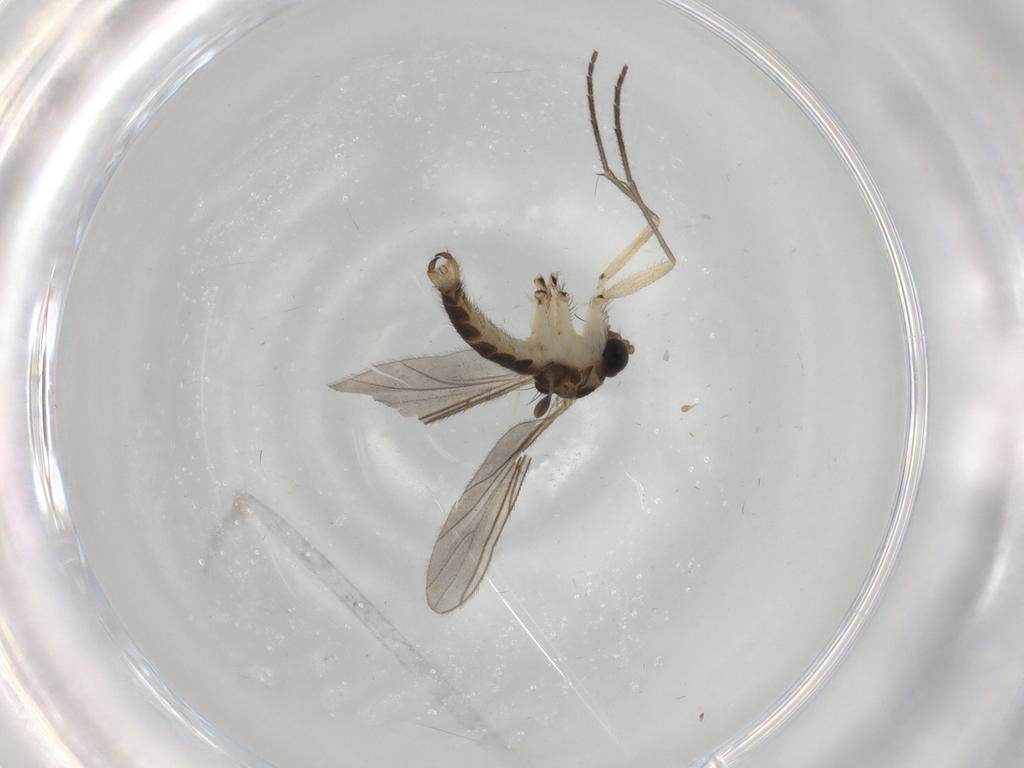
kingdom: Animalia
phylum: Arthropoda
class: Insecta
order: Diptera
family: Sciaridae
